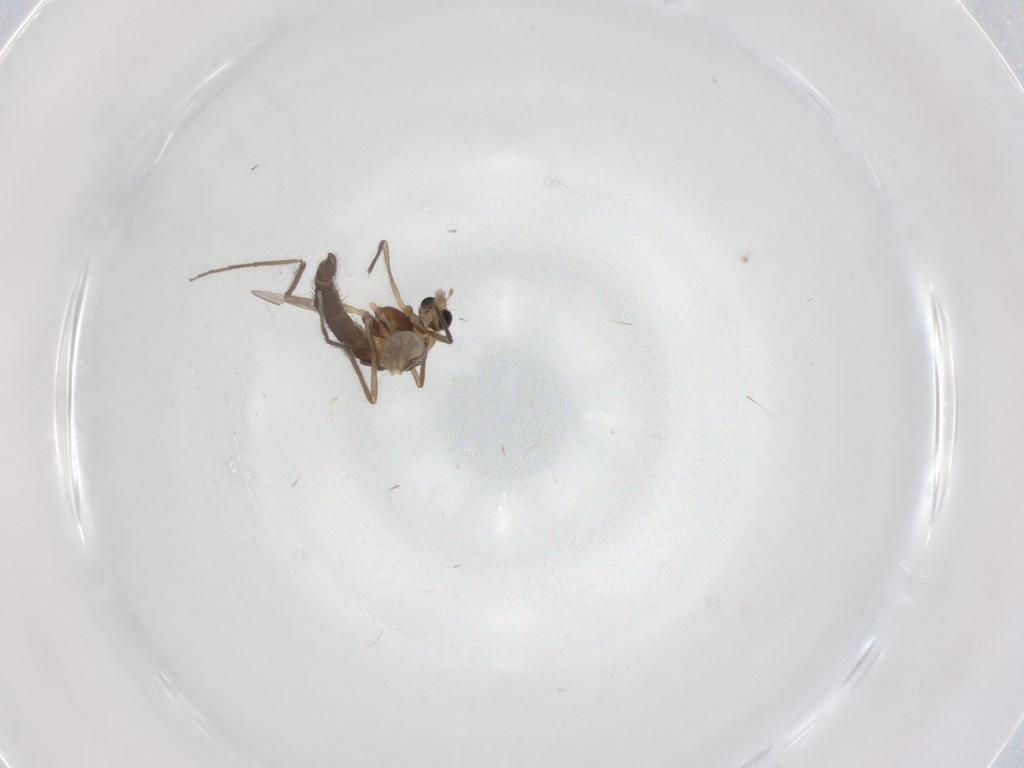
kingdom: Animalia
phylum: Arthropoda
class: Insecta
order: Diptera
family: Chironomidae
